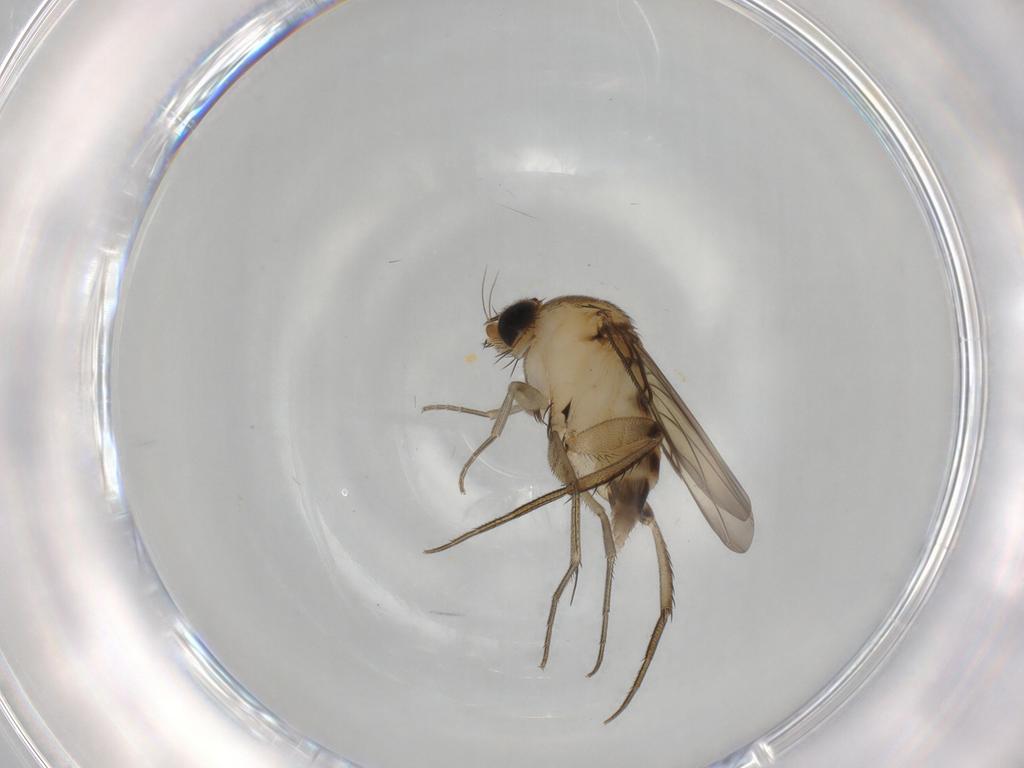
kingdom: Animalia
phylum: Arthropoda
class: Insecta
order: Diptera
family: Phoridae
